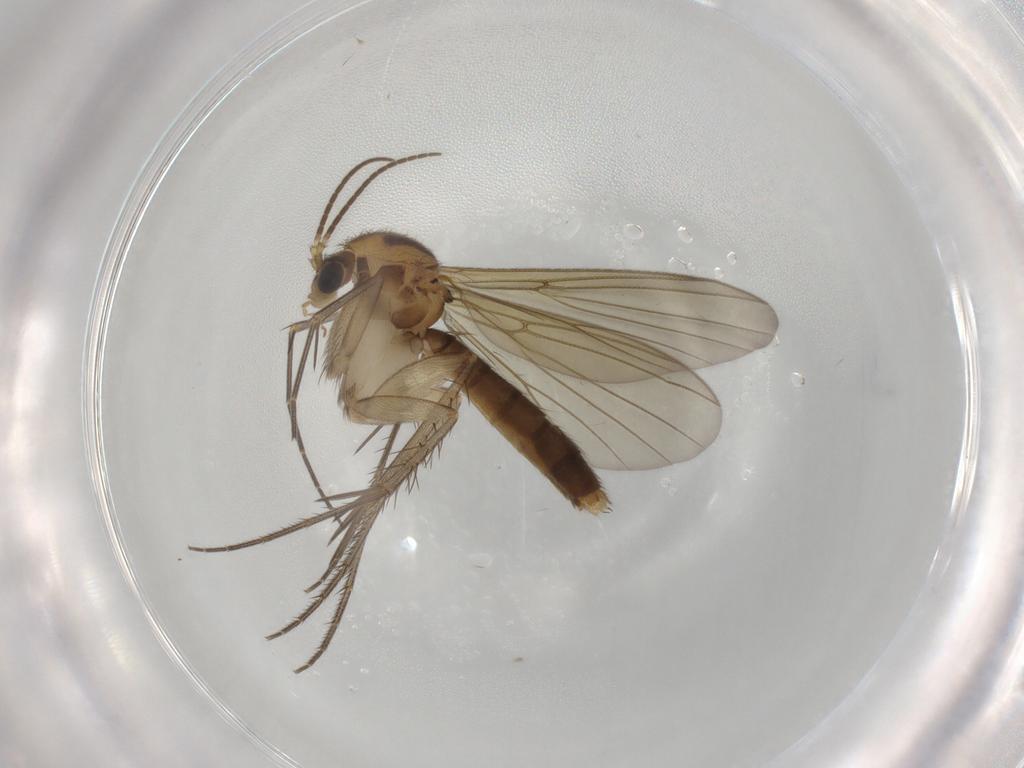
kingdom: Animalia
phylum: Arthropoda
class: Insecta
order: Diptera
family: Mycetophilidae
